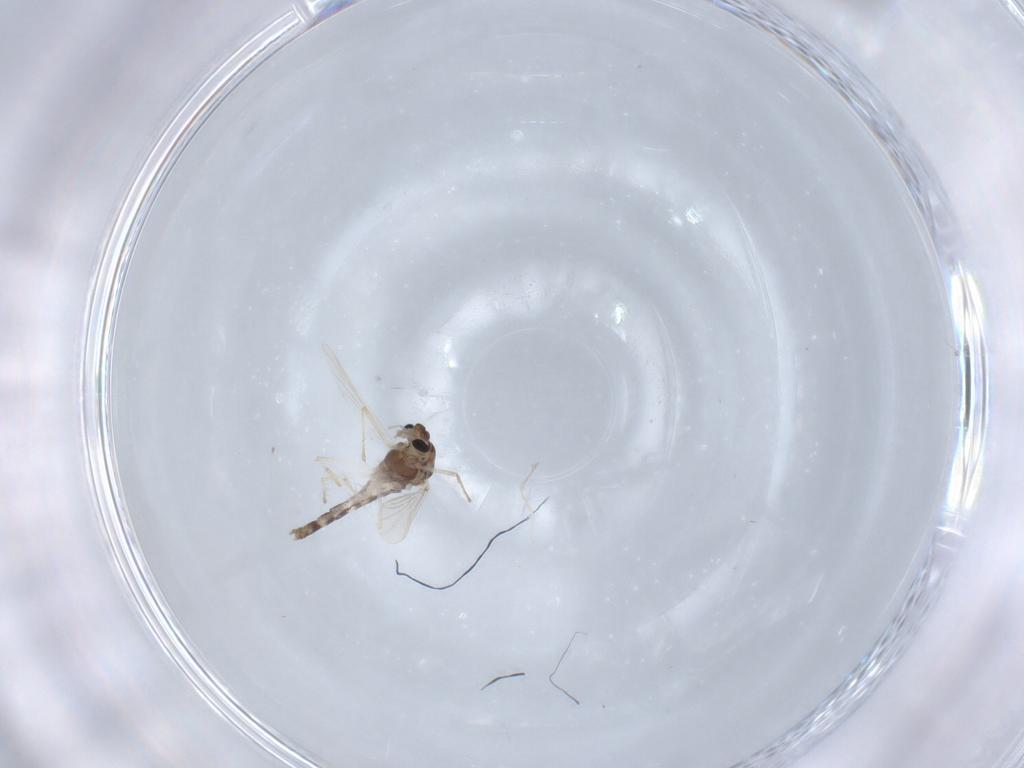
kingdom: Animalia
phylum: Arthropoda
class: Insecta
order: Diptera
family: Chironomidae
